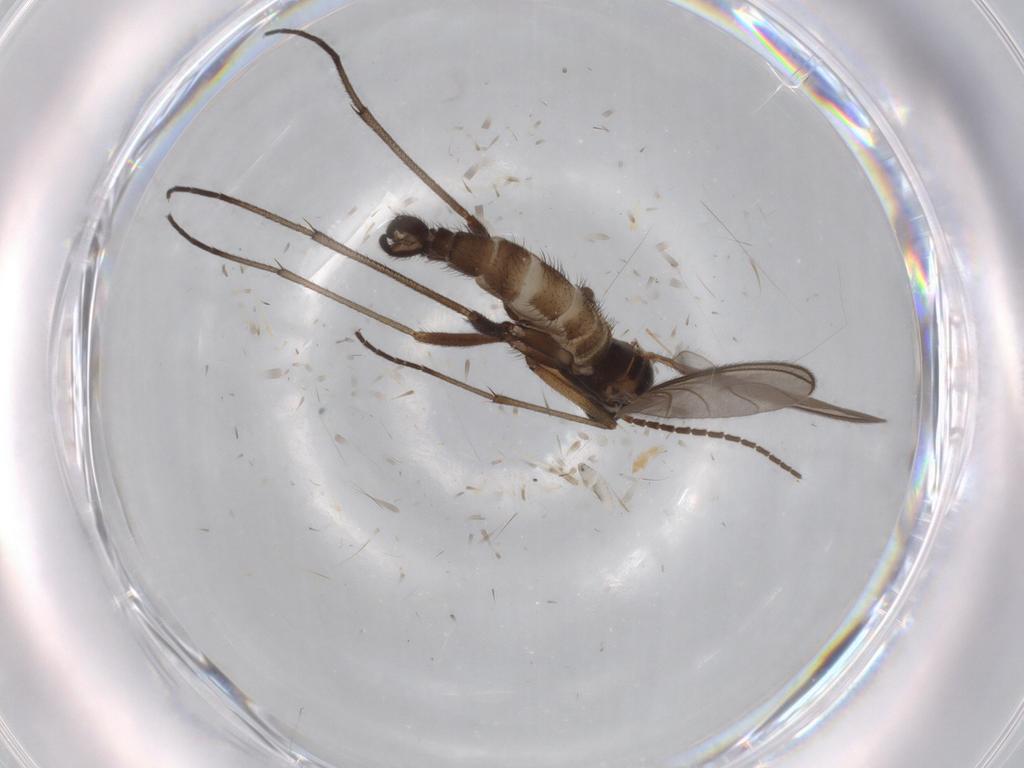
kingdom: Animalia
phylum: Arthropoda
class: Insecta
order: Diptera
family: Sciaridae
